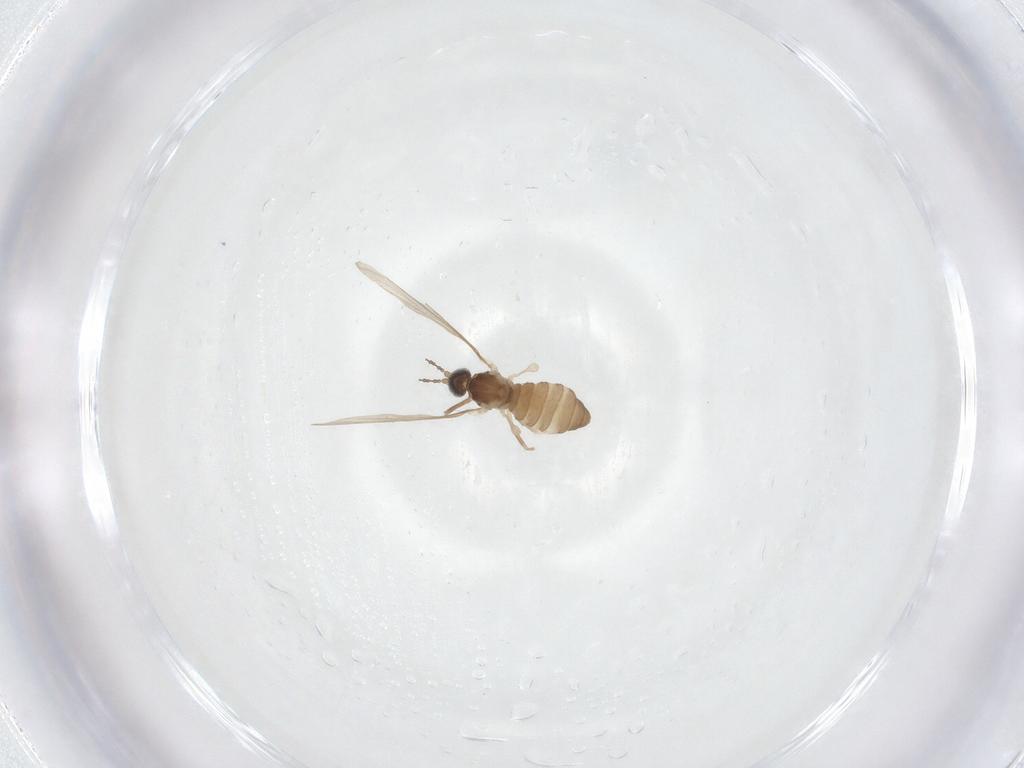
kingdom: Animalia
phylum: Arthropoda
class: Insecta
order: Diptera
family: Cecidomyiidae
